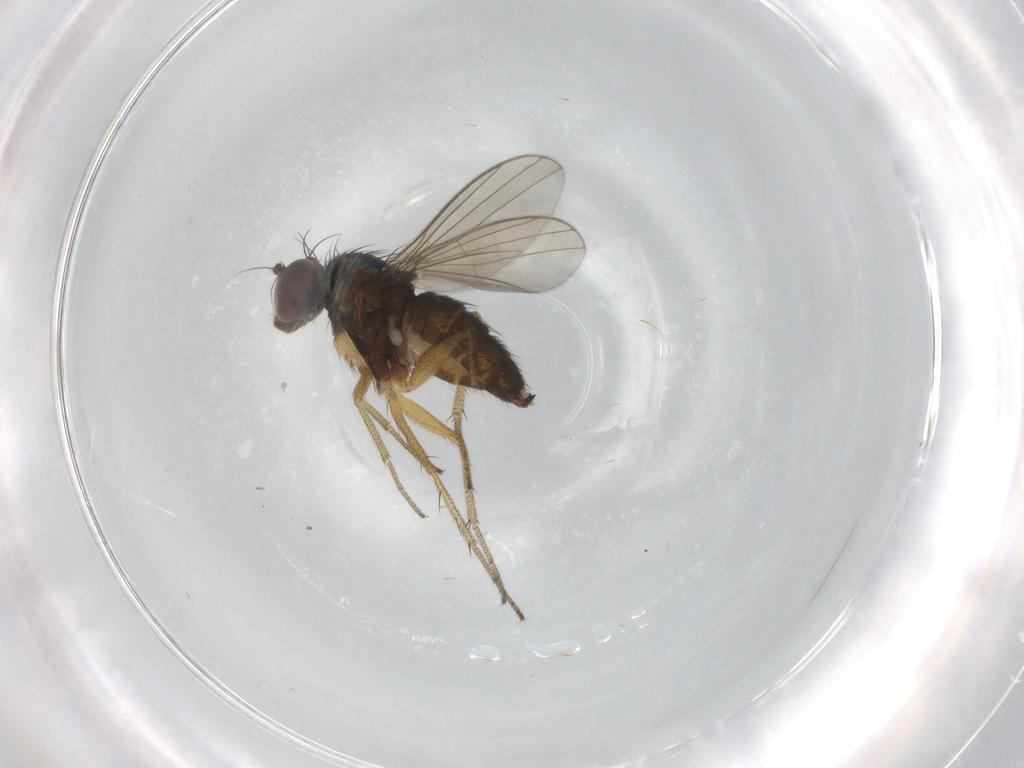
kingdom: Animalia
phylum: Arthropoda
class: Insecta
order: Diptera
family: Dolichopodidae
